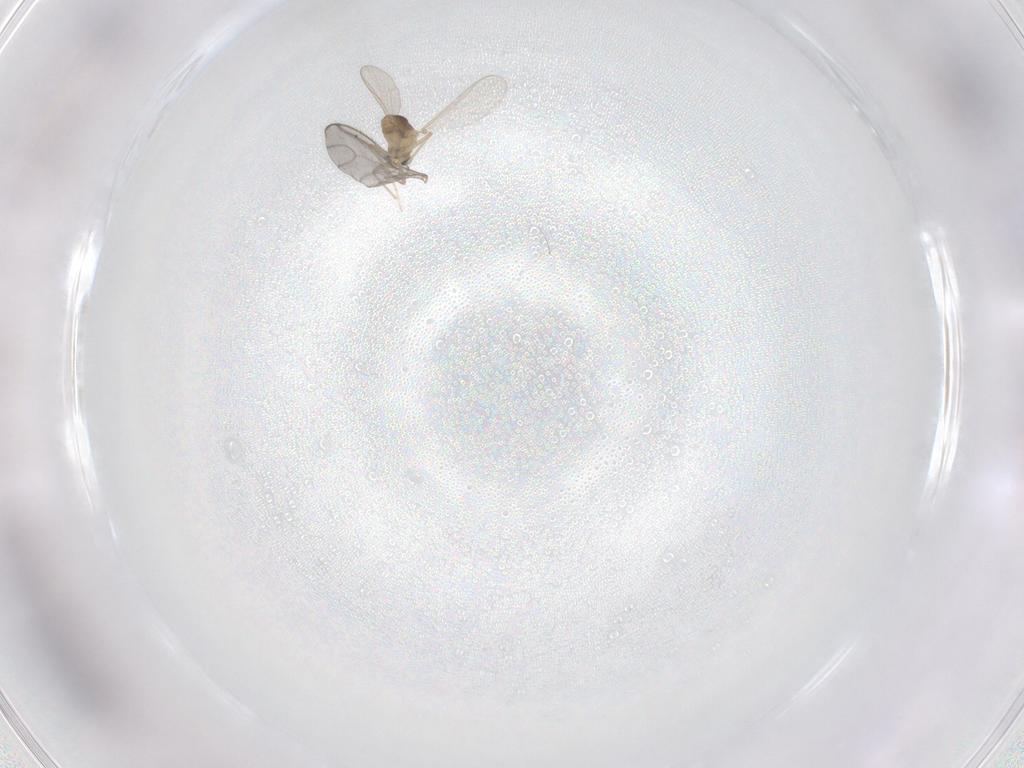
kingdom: Animalia
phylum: Arthropoda
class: Insecta
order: Diptera
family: Chironomidae
